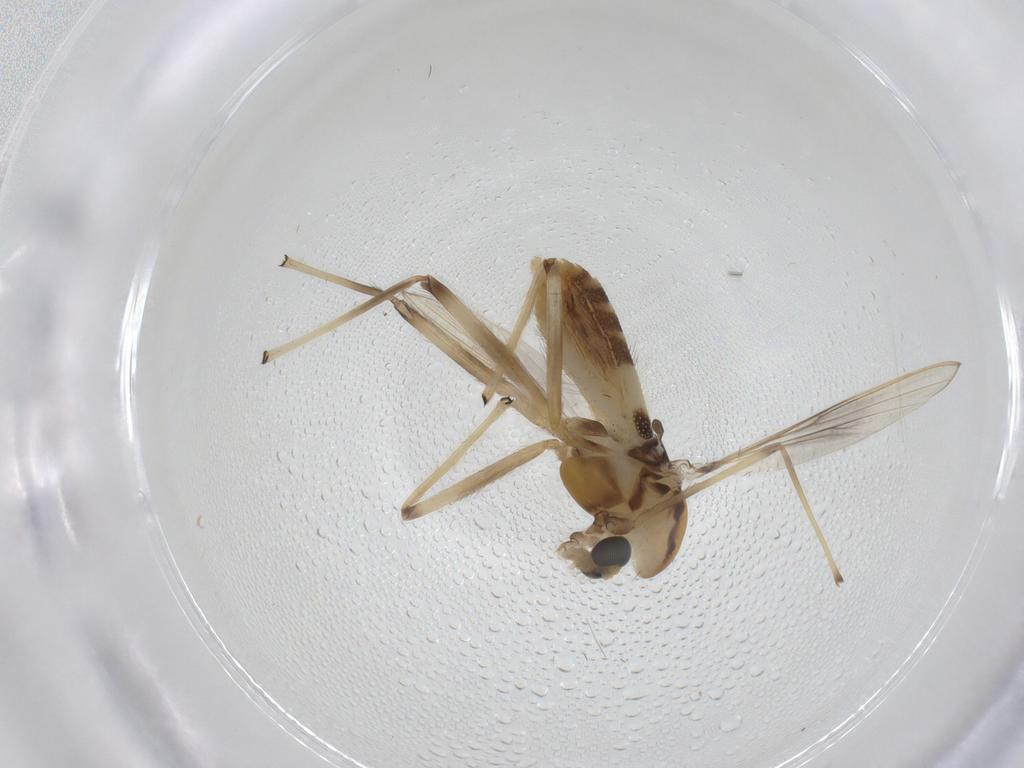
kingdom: Animalia
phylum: Arthropoda
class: Insecta
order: Diptera
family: Chironomidae
